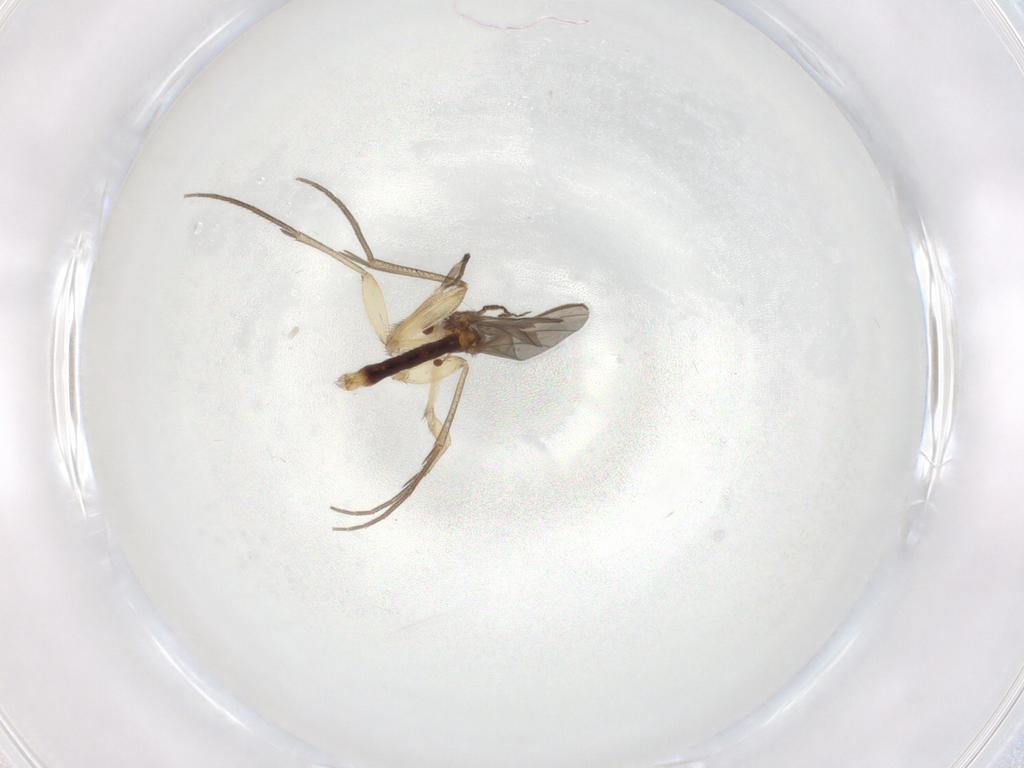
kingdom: Animalia
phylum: Arthropoda
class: Insecta
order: Diptera
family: Mycetophilidae
